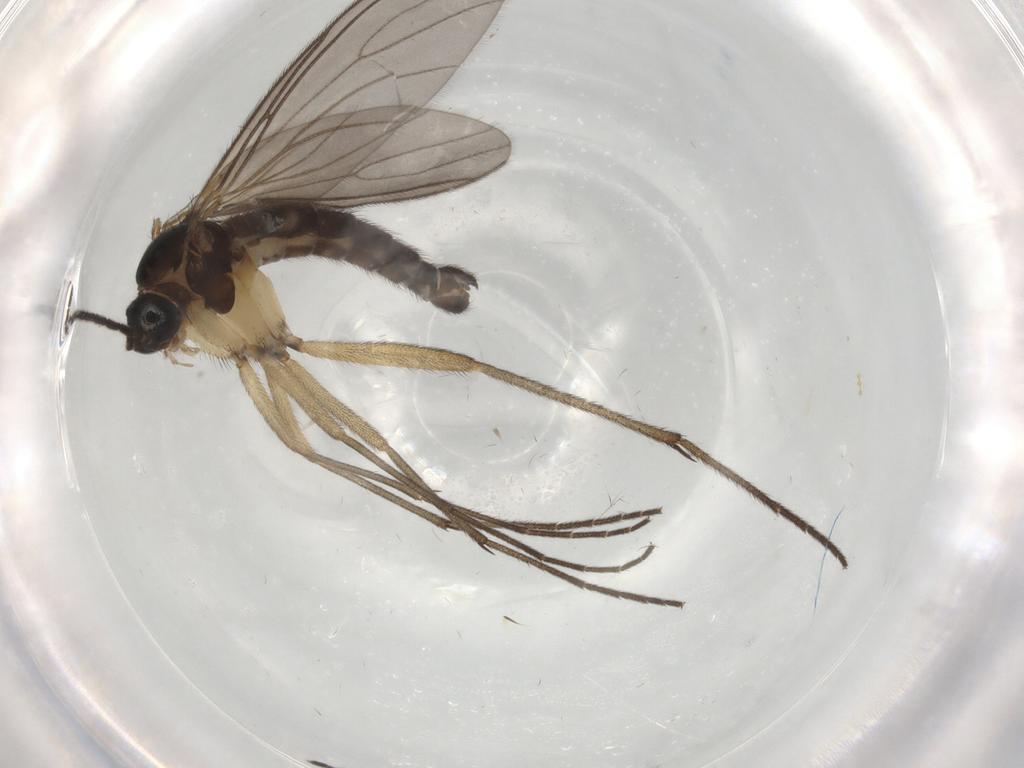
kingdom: Animalia
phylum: Arthropoda
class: Insecta
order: Diptera
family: Sciaridae
